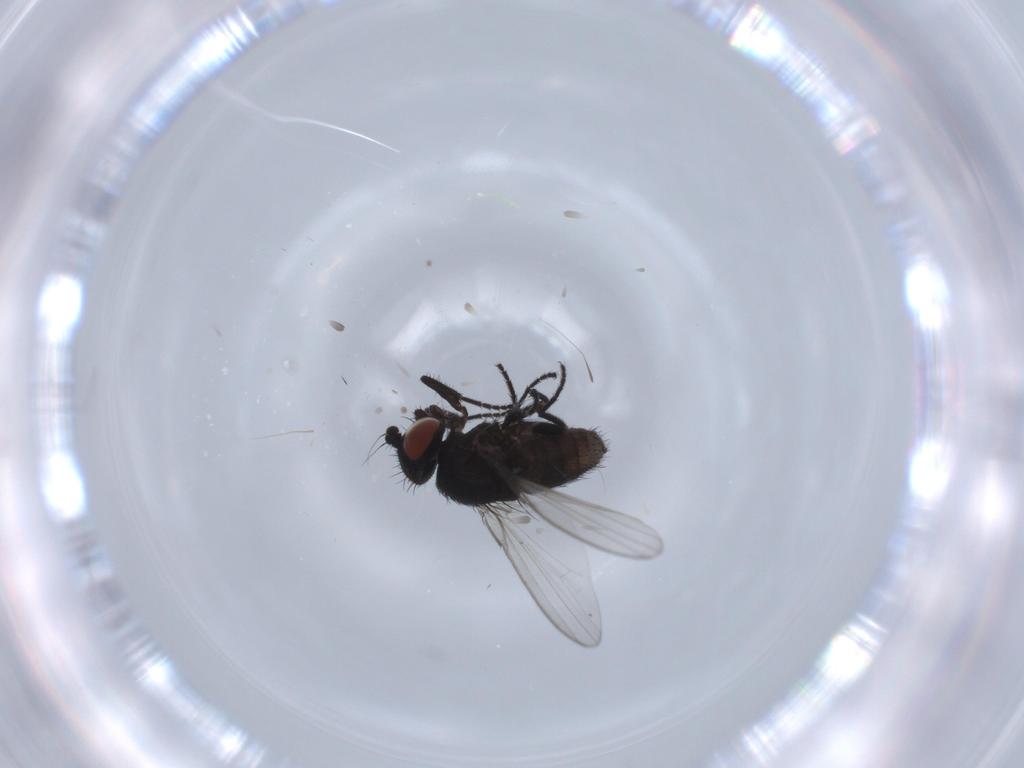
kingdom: Animalia
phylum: Arthropoda
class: Insecta
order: Diptera
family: Milichiidae
